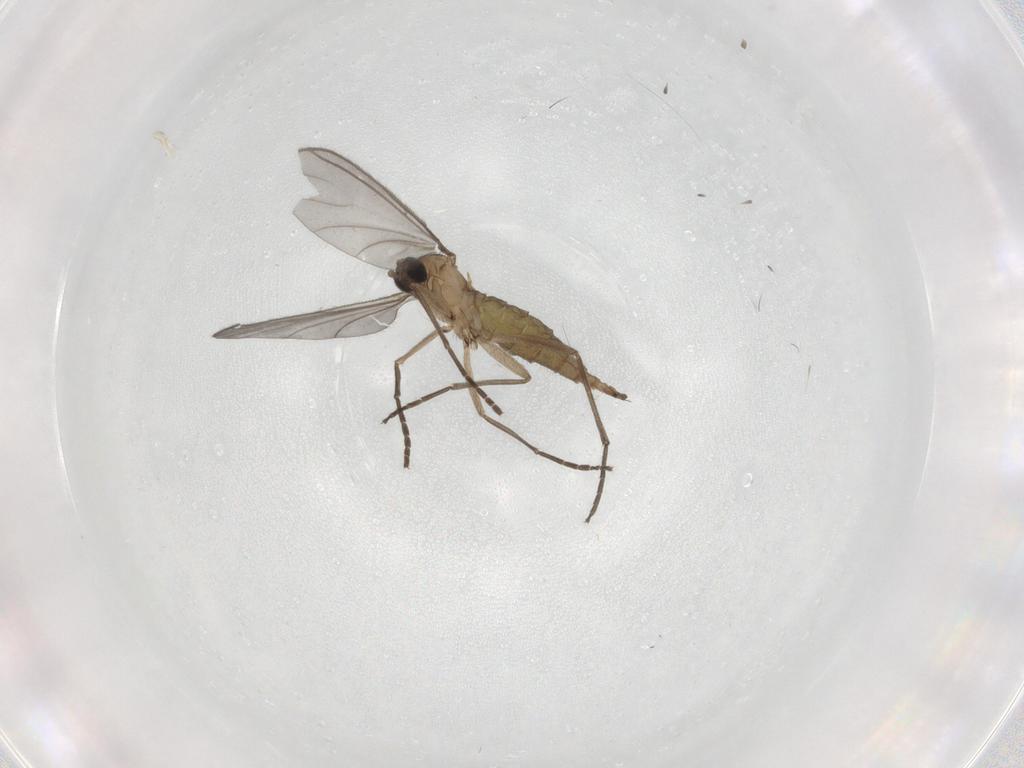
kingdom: Animalia
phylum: Arthropoda
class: Insecta
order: Diptera
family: Sciaridae
